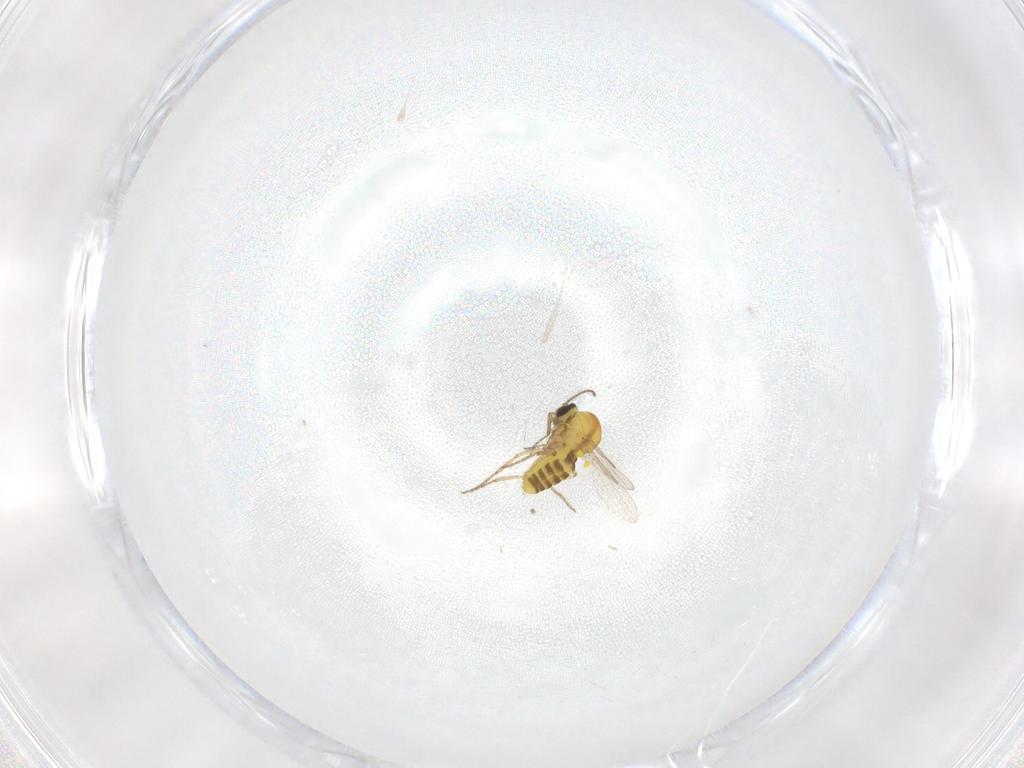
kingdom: Animalia
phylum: Arthropoda
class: Insecta
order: Diptera
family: Ceratopogonidae
